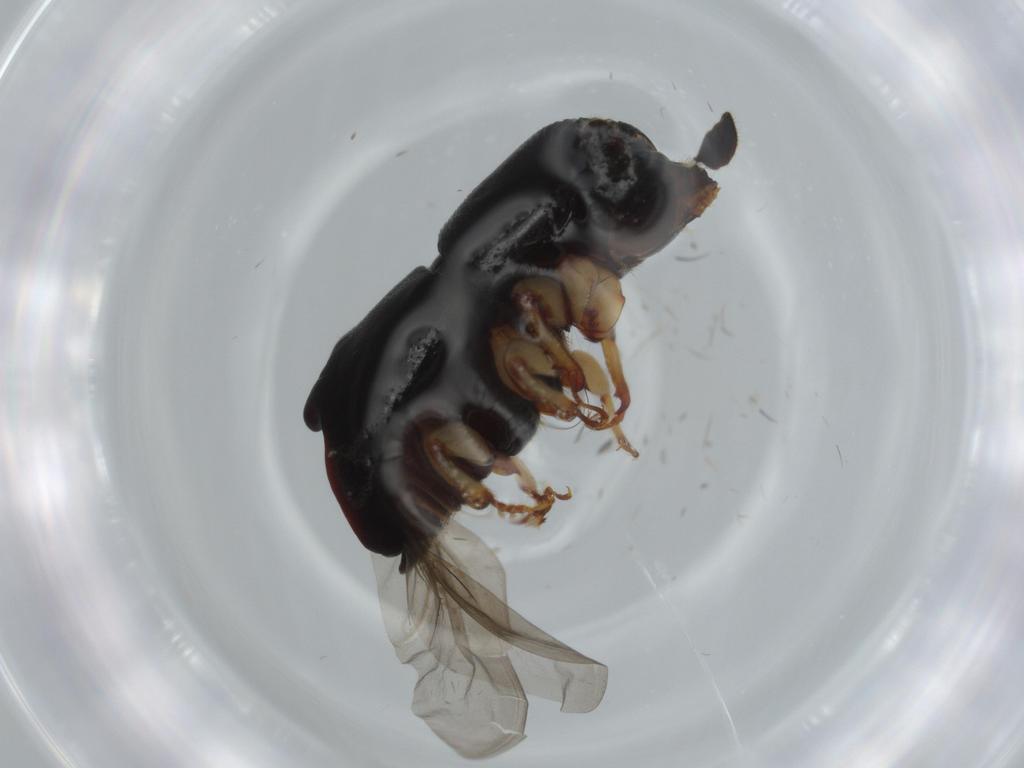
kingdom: Animalia
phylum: Arthropoda
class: Insecta
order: Coleoptera
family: Curculionidae
